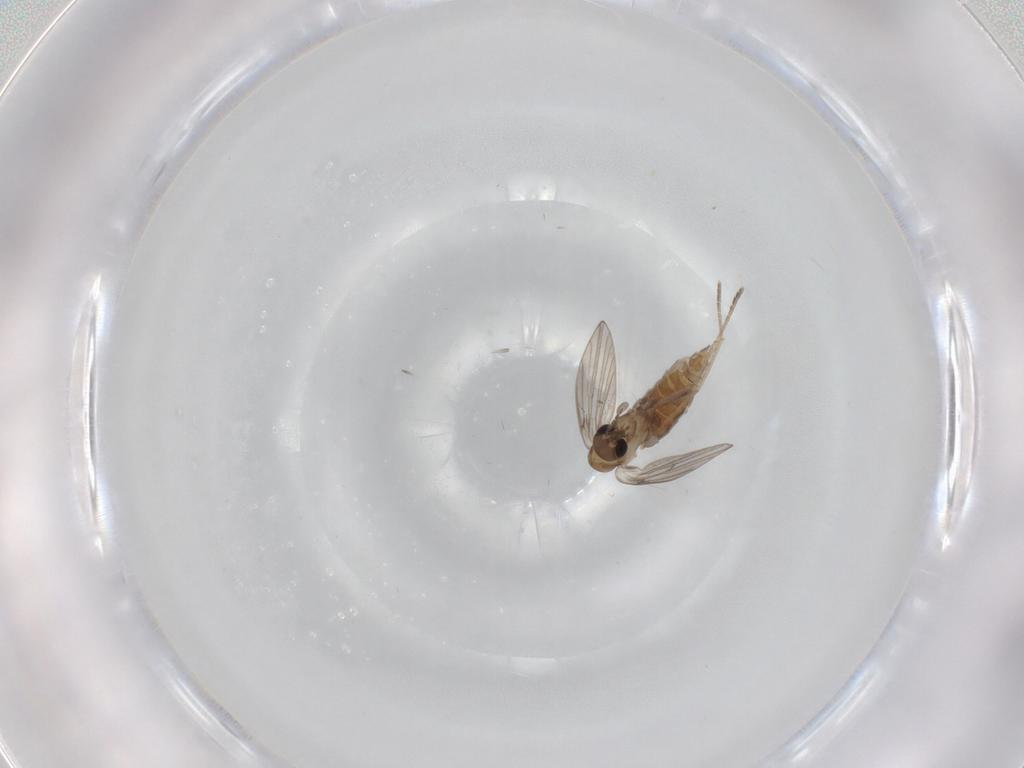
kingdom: Animalia
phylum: Arthropoda
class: Insecta
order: Diptera
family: Psychodidae
